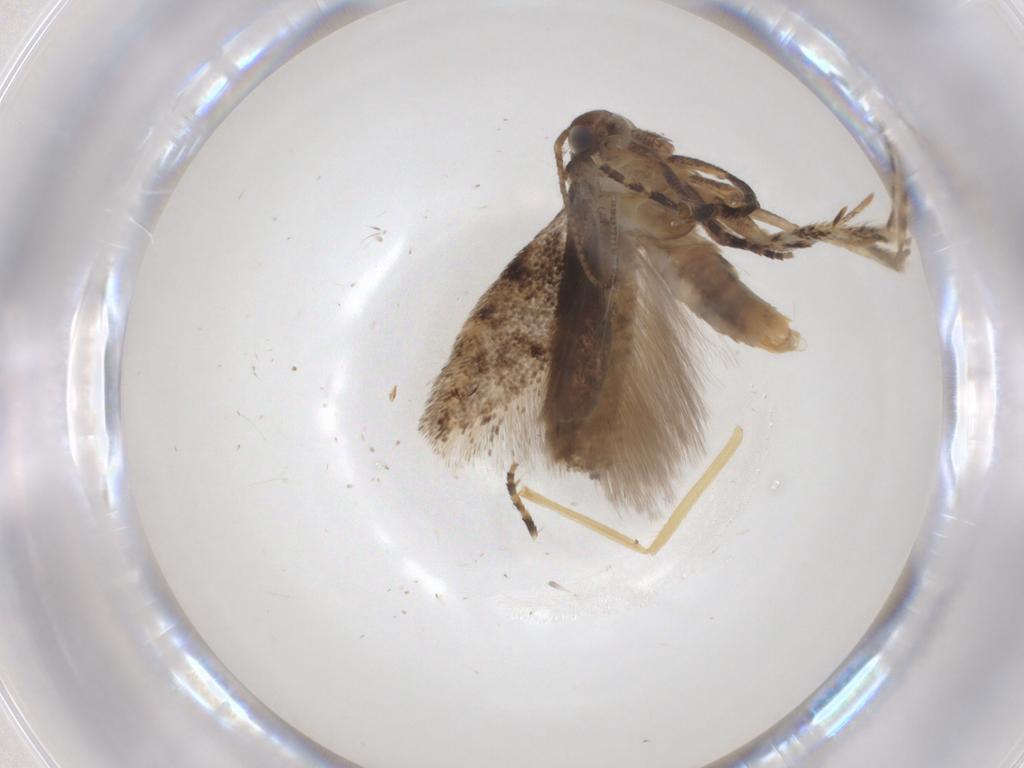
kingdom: Animalia
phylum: Arthropoda
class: Insecta
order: Lepidoptera
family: Gelechiidae
